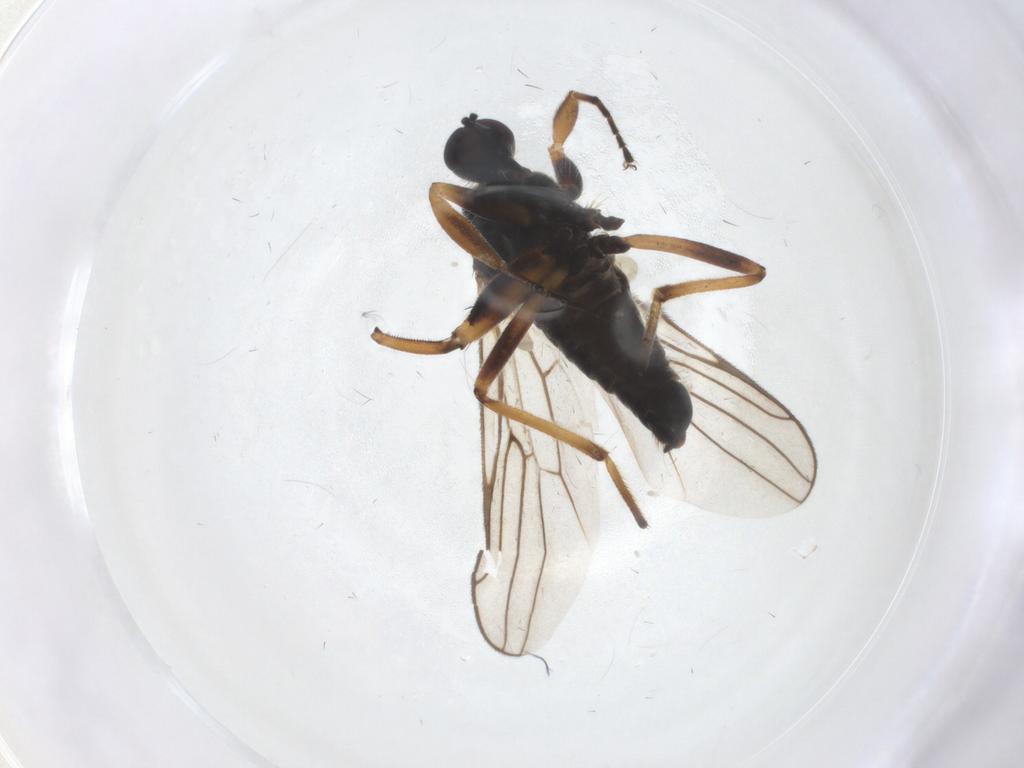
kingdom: Animalia
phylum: Arthropoda
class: Insecta
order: Diptera
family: Hybotidae
